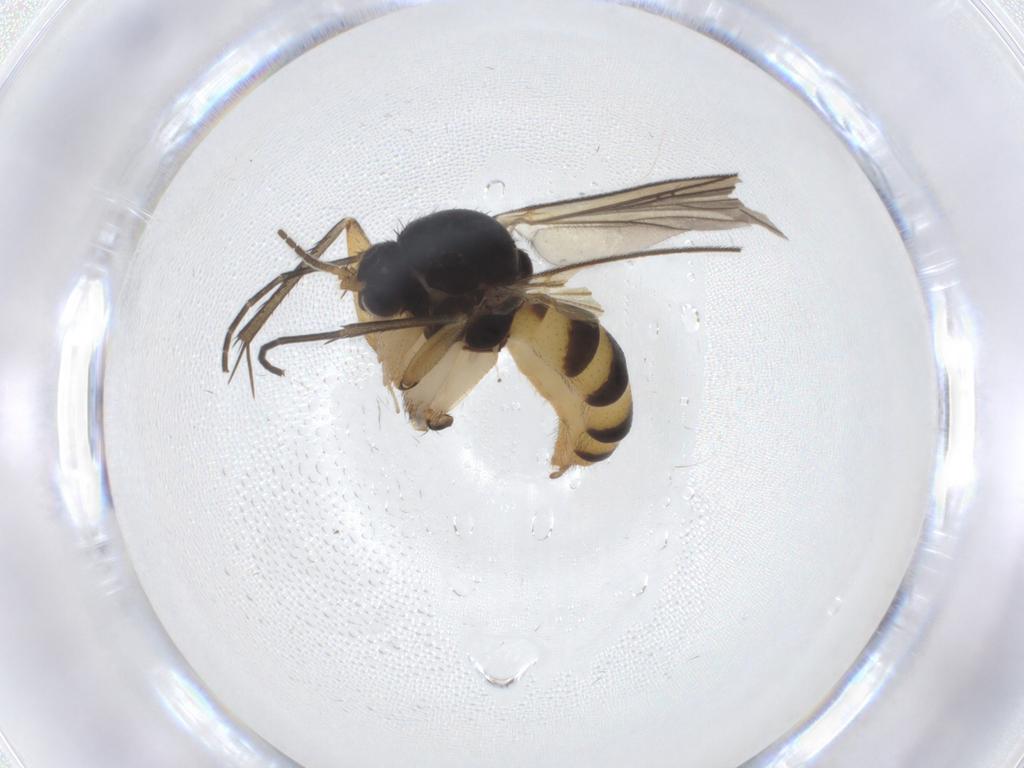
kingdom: Animalia
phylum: Arthropoda
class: Insecta
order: Diptera
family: Mycetophilidae
